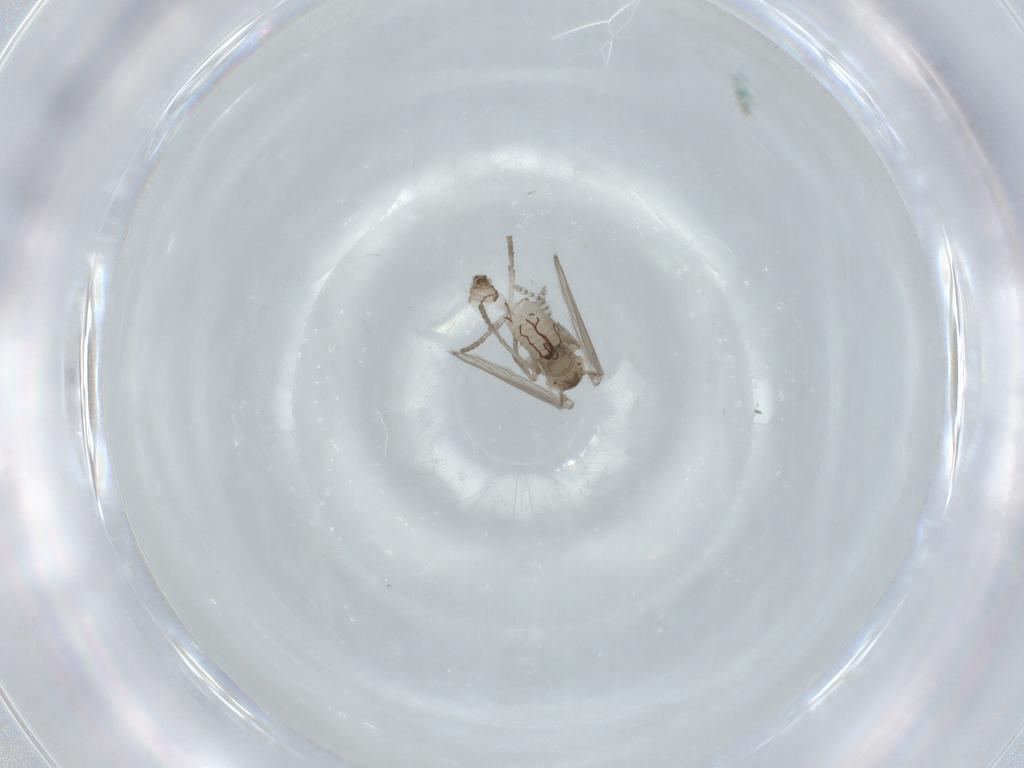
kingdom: Animalia
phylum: Arthropoda
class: Insecta
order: Diptera
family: Psychodidae
